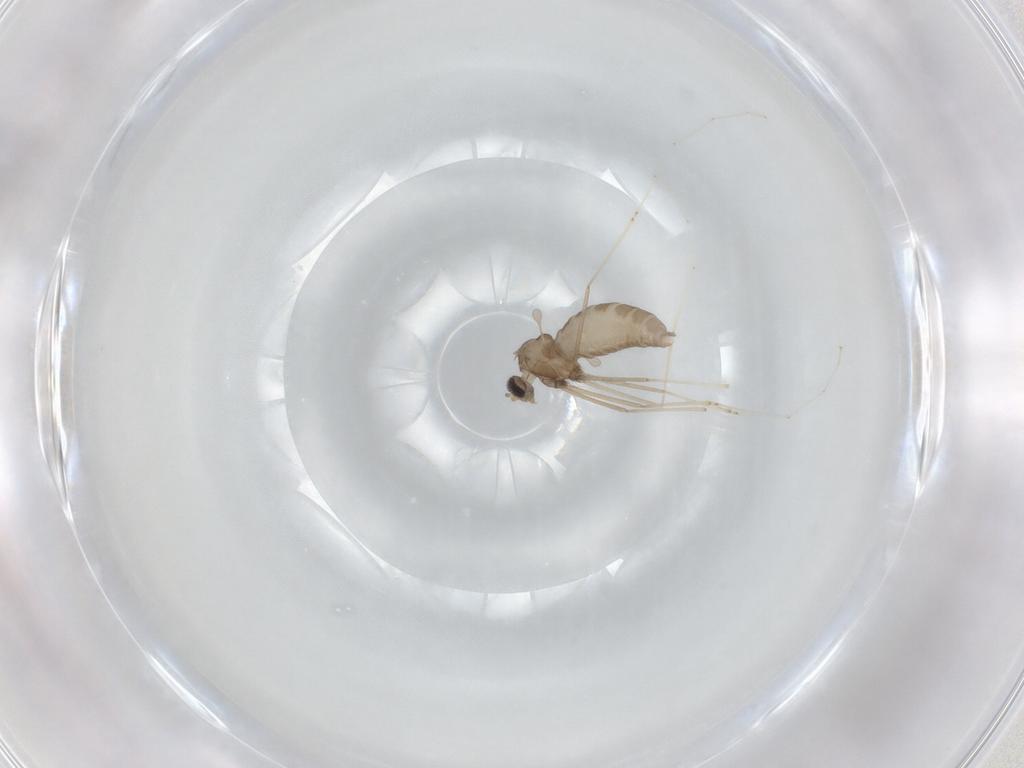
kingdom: Animalia
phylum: Arthropoda
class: Insecta
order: Diptera
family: Cecidomyiidae
